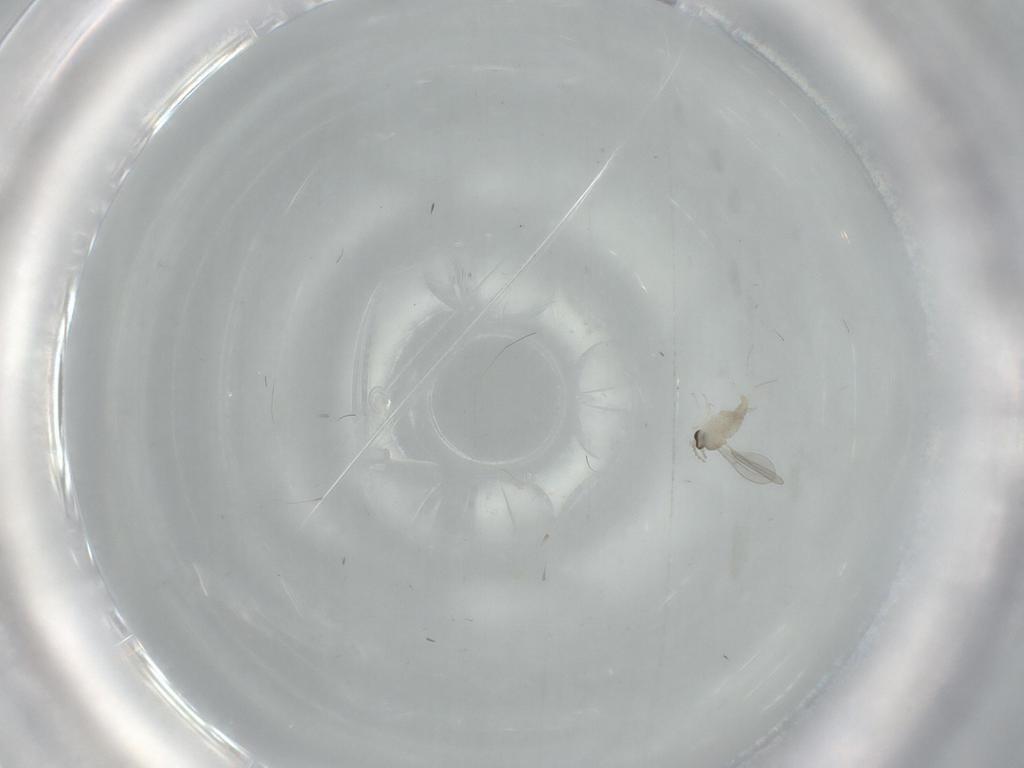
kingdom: Animalia
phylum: Arthropoda
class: Insecta
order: Diptera
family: Cecidomyiidae
